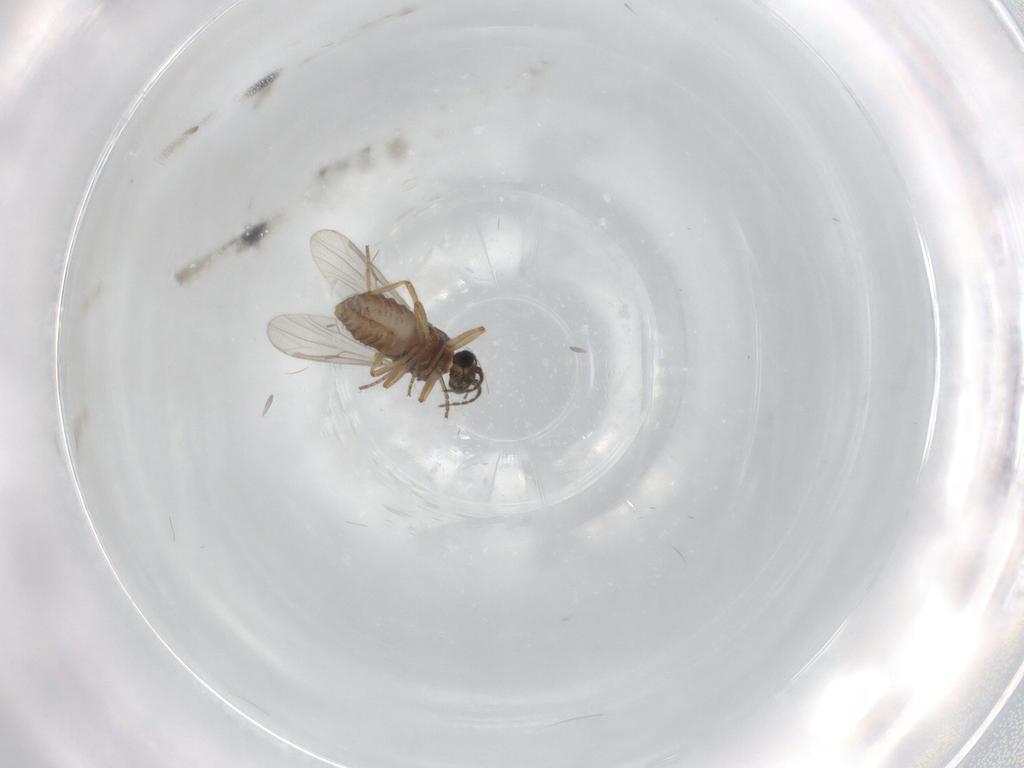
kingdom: Animalia
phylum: Arthropoda
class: Insecta
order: Diptera
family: Ceratopogonidae
